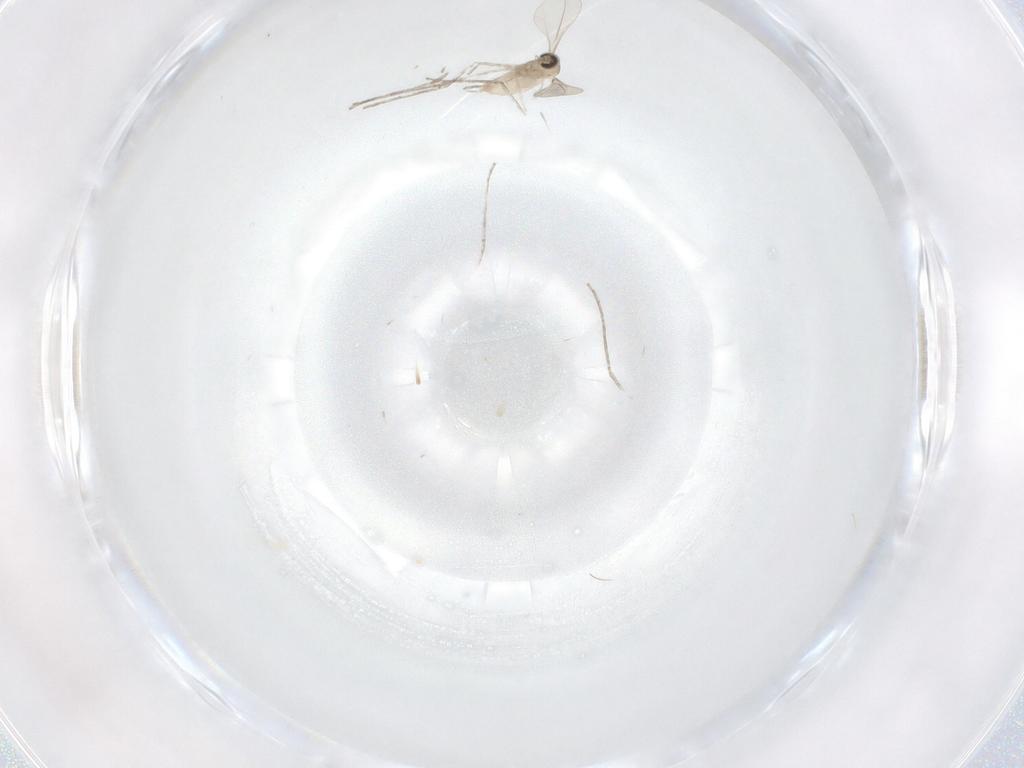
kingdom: Animalia
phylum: Arthropoda
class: Insecta
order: Diptera
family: Cecidomyiidae
